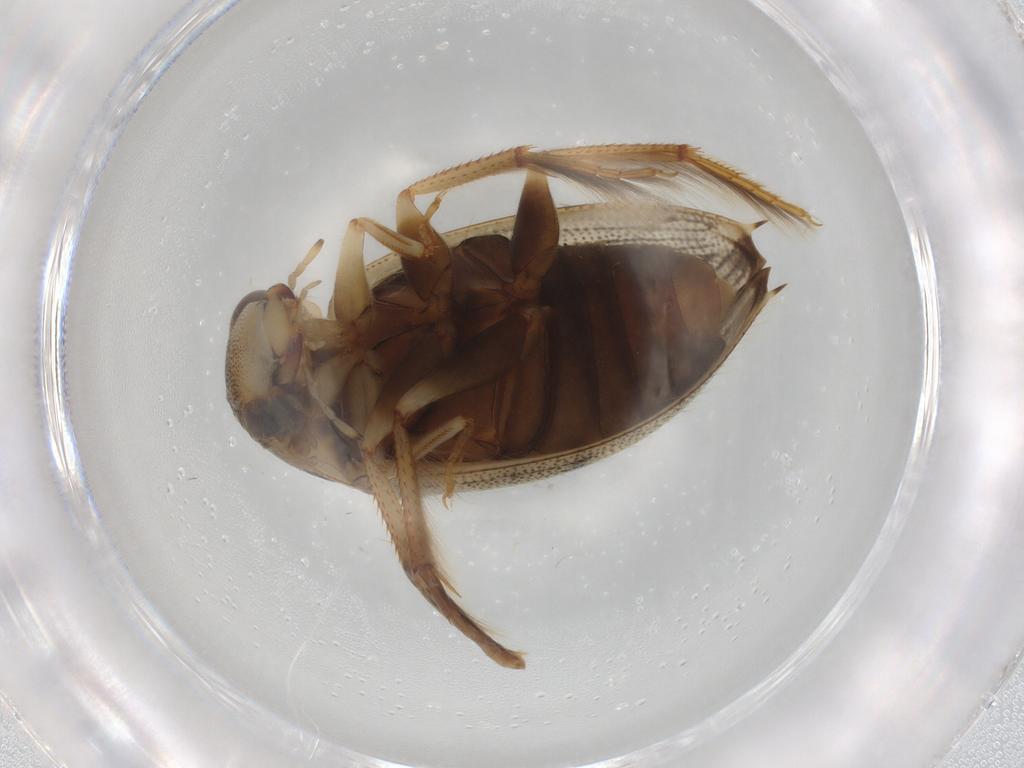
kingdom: Animalia
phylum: Arthropoda
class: Insecta
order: Coleoptera
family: Hydrophilidae
